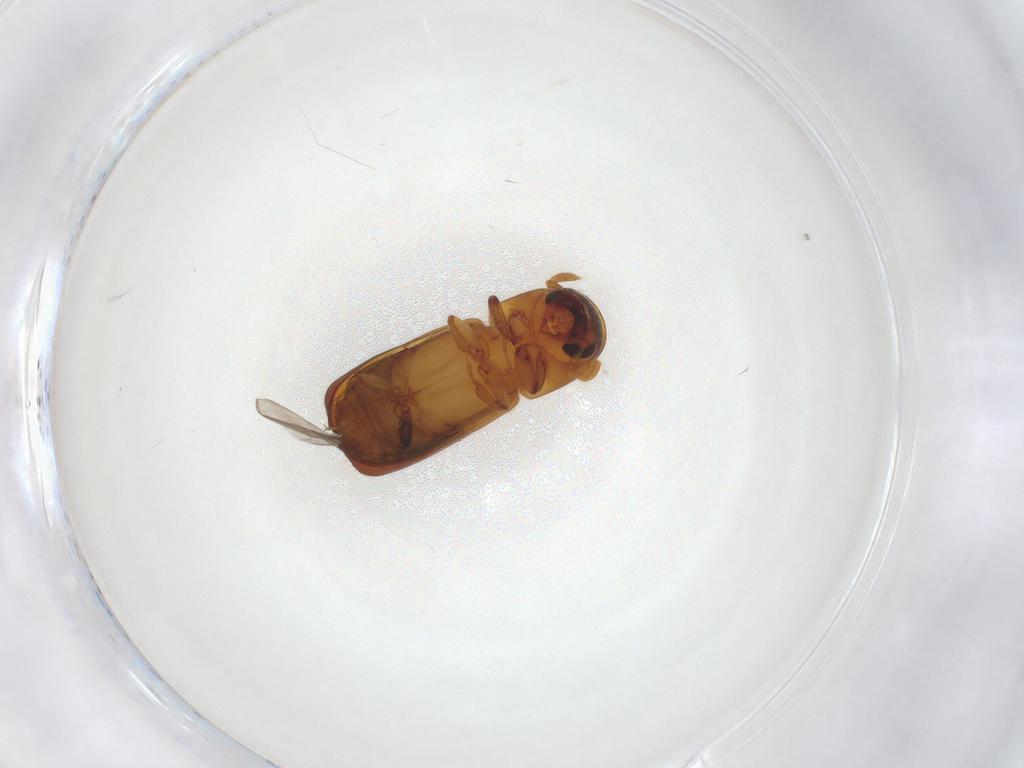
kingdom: Animalia
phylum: Arthropoda
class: Insecta
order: Coleoptera
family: Curculionidae
